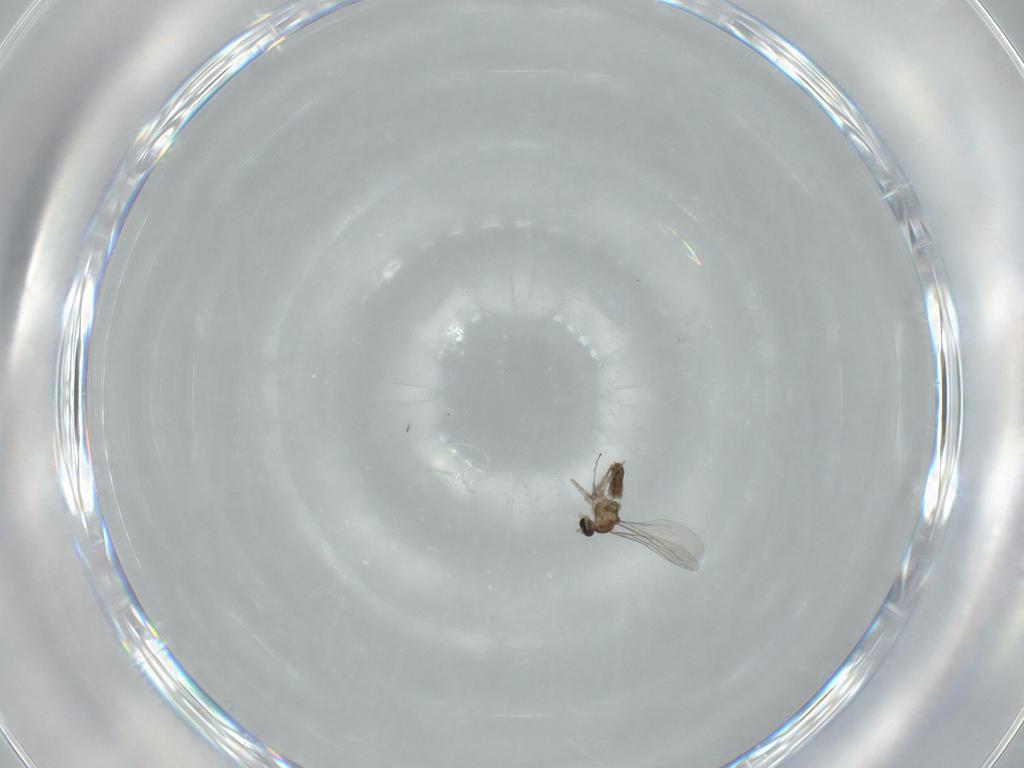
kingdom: Animalia
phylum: Arthropoda
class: Insecta
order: Diptera
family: Cecidomyiidae
